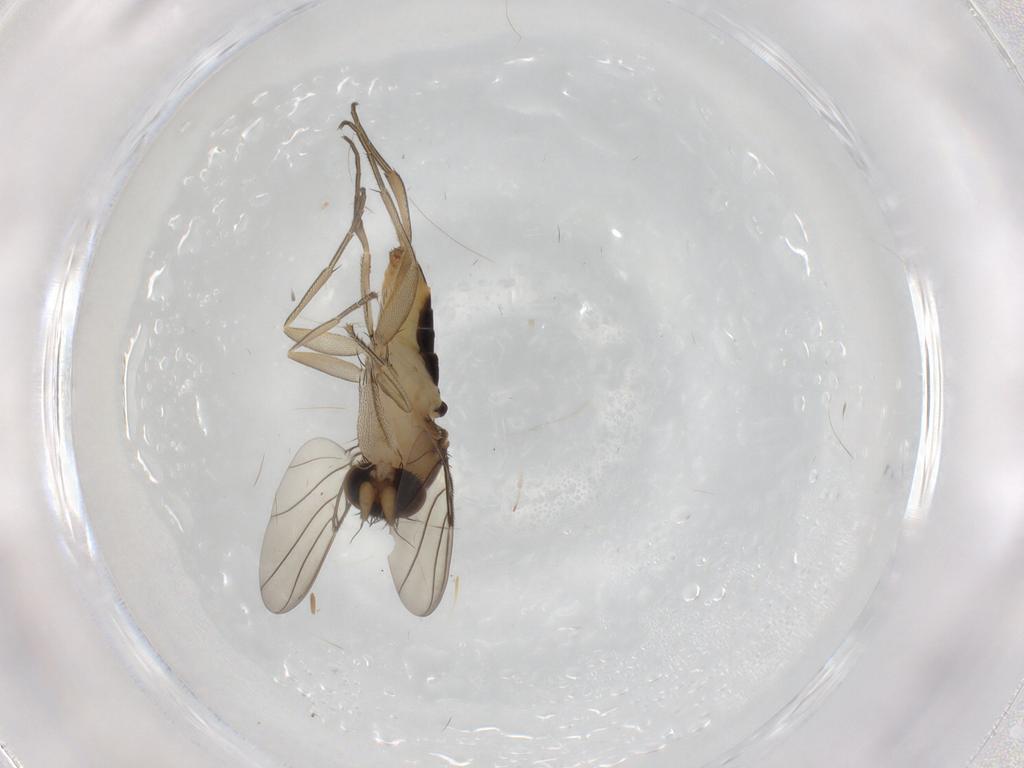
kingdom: Animalia
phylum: Arthropoda
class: Insecta
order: Diptera
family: Phoridae
